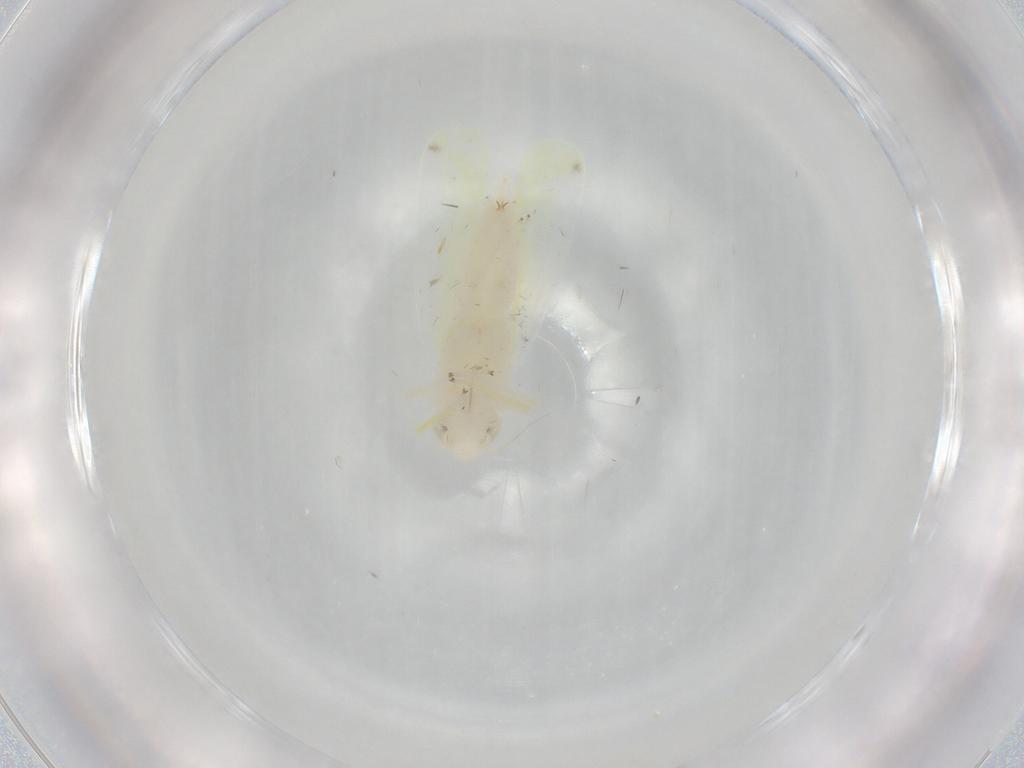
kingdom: Animalia
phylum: Arthropoda
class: Insecta
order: Hemiptera
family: Cicadellidae
